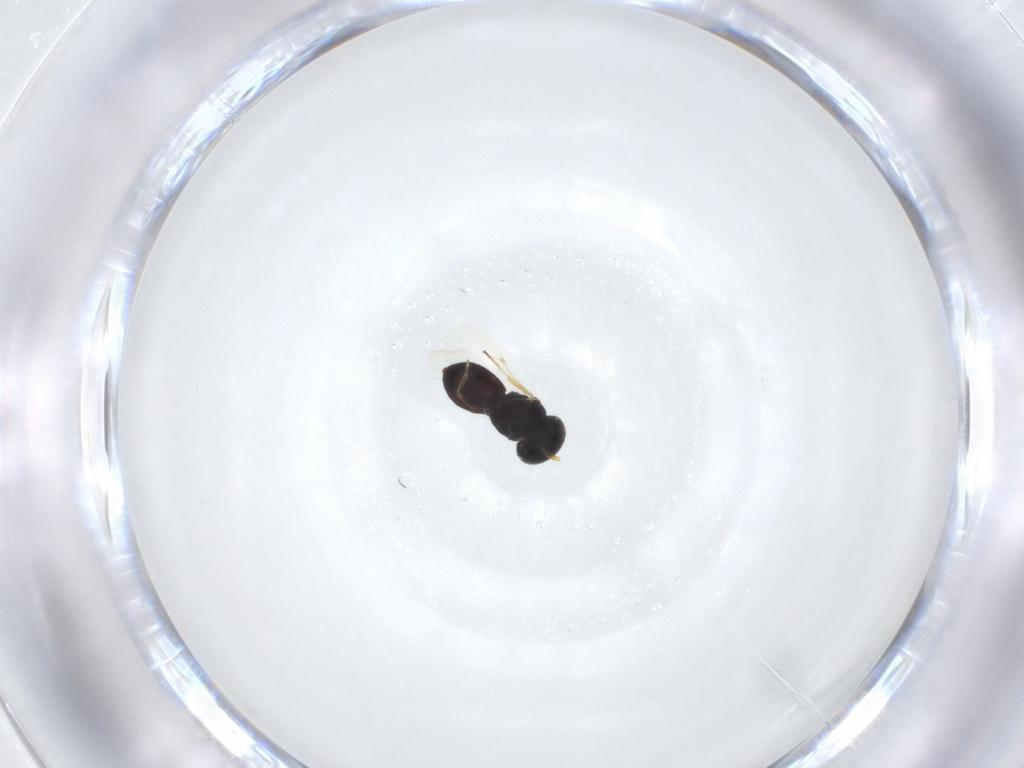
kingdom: Animalia
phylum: Arthropoda
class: Insecta
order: Hymenoptera
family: Scelionidae
